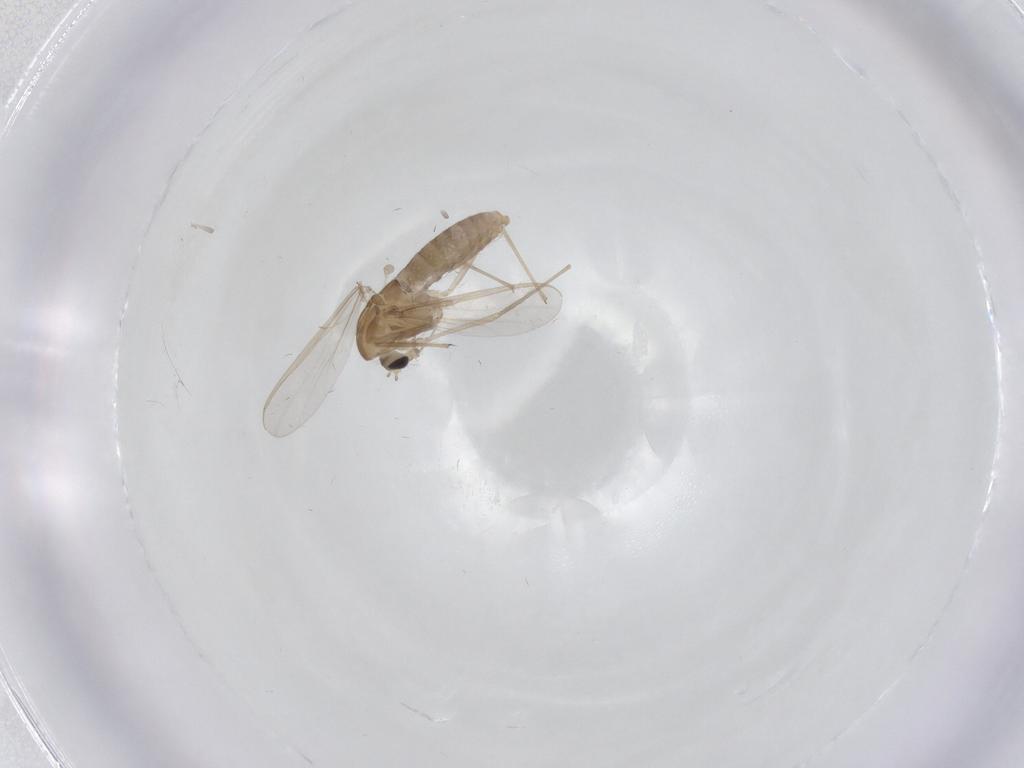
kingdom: Animalia
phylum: Arthropoda
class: Insecta
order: Diptera
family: Chironomidae
